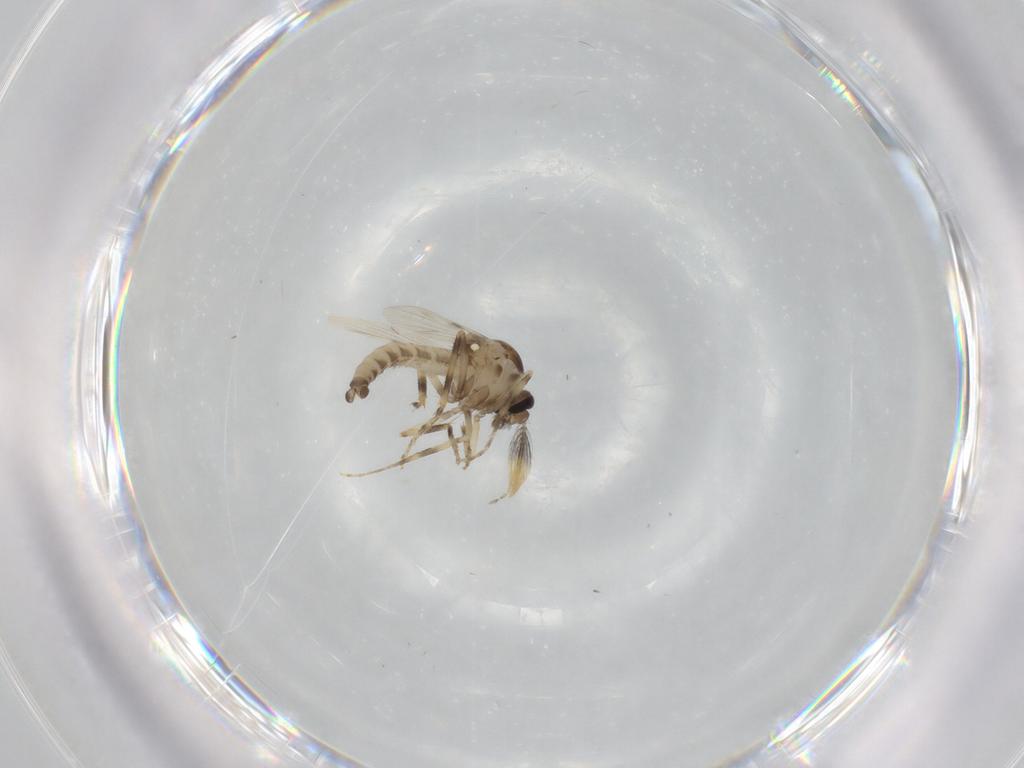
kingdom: Animalia
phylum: Arthropoda
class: Insecta
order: Diptera
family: Ceratopogonidae
